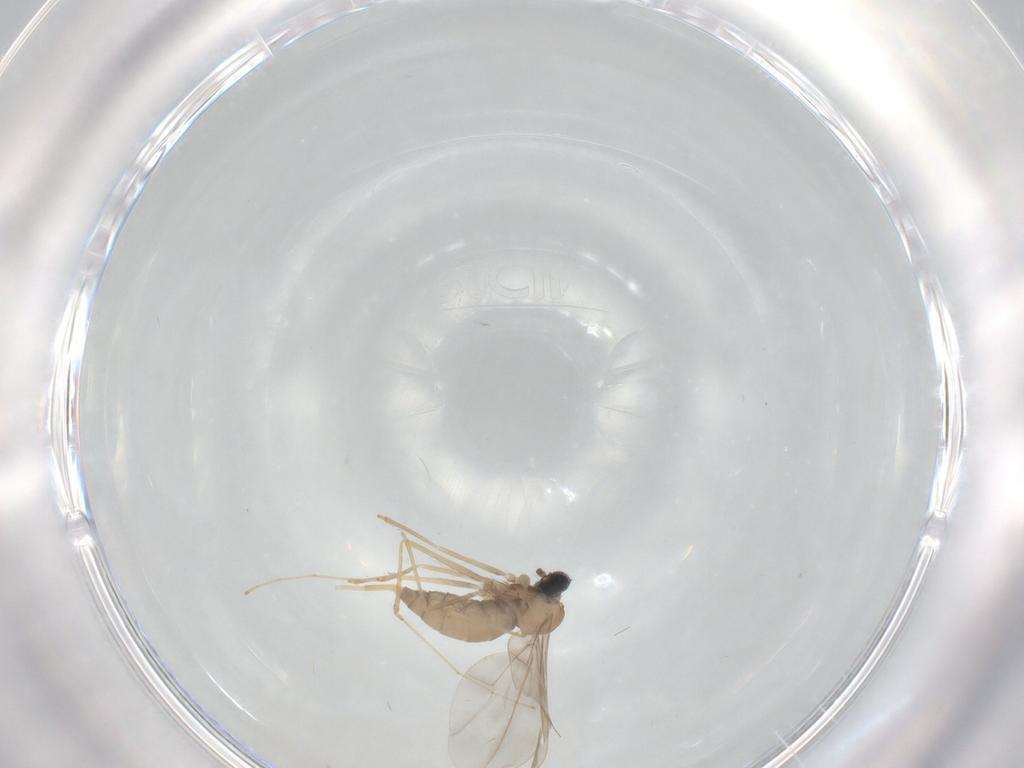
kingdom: Animalia
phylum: Arthropoda
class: Insecta
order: Diptera
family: Cecidomyiidae
